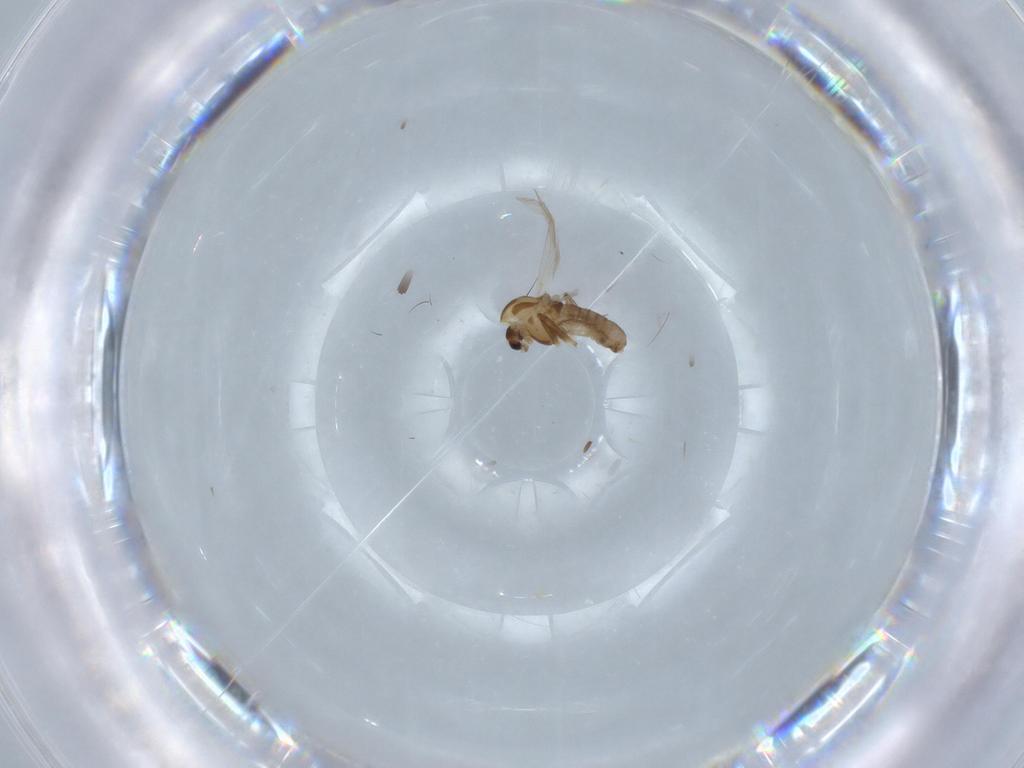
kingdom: Animalia
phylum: Arthropoda
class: Insecta
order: Diptera
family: Chironomidae
